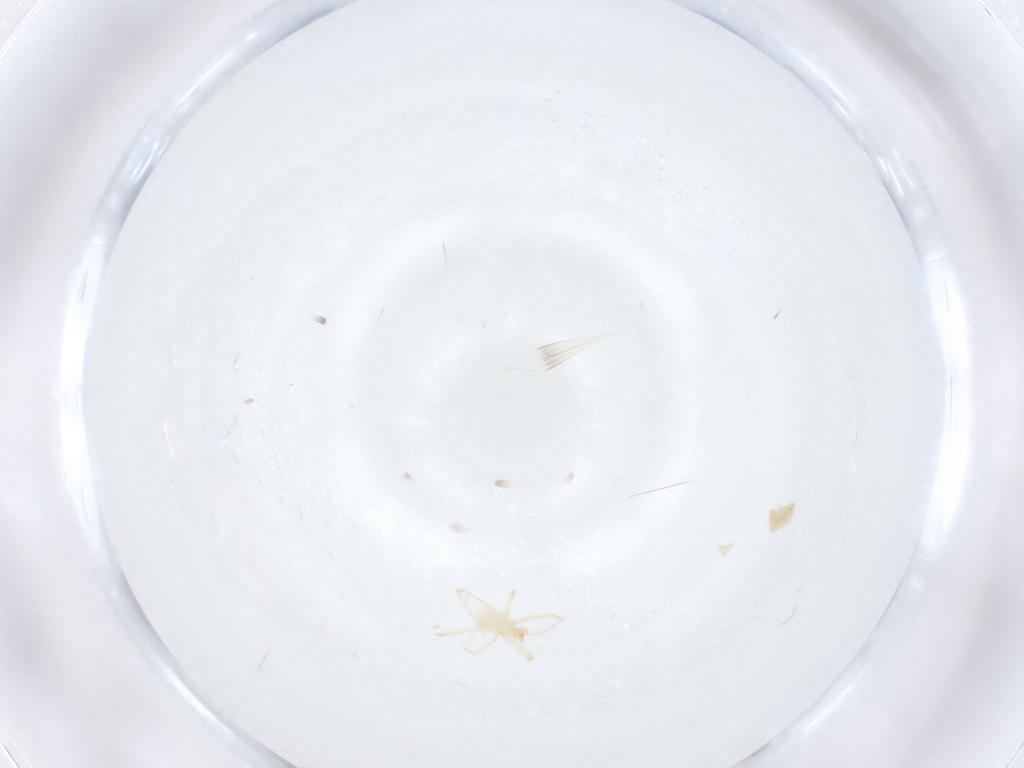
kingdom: Animalia
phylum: Arthropoda
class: Arachnida
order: Trombidiformes
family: Erythraeidae
